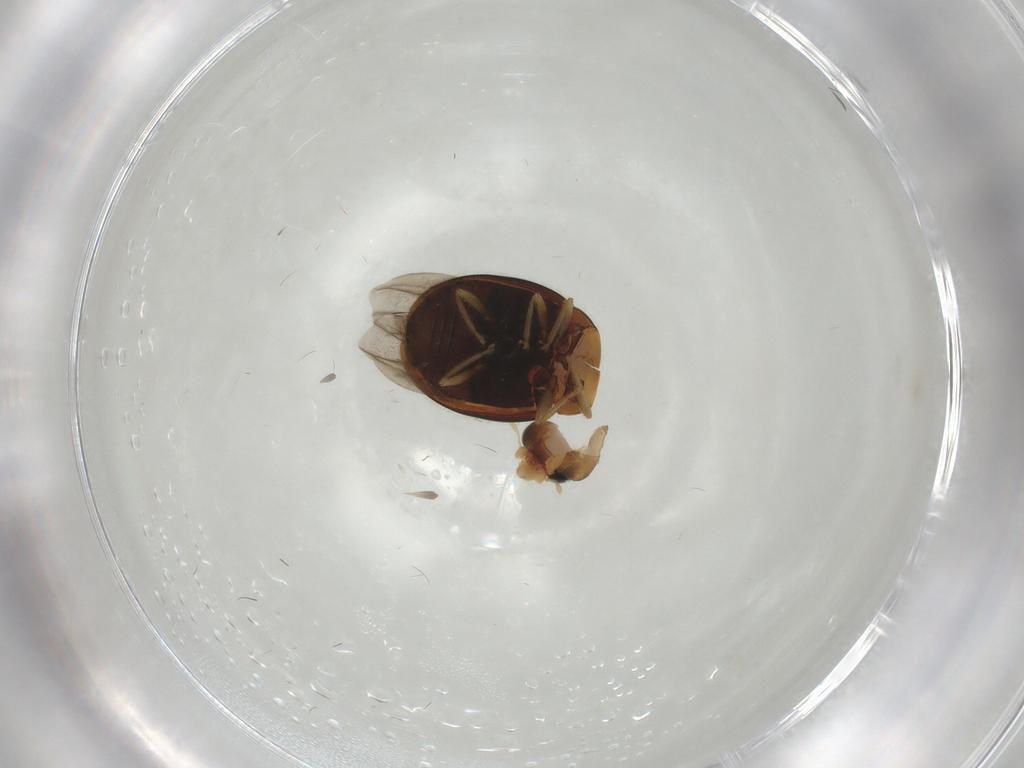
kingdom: Animalia
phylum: Arthropoda
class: Insecta
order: Coleoptera
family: Coccinellidae
